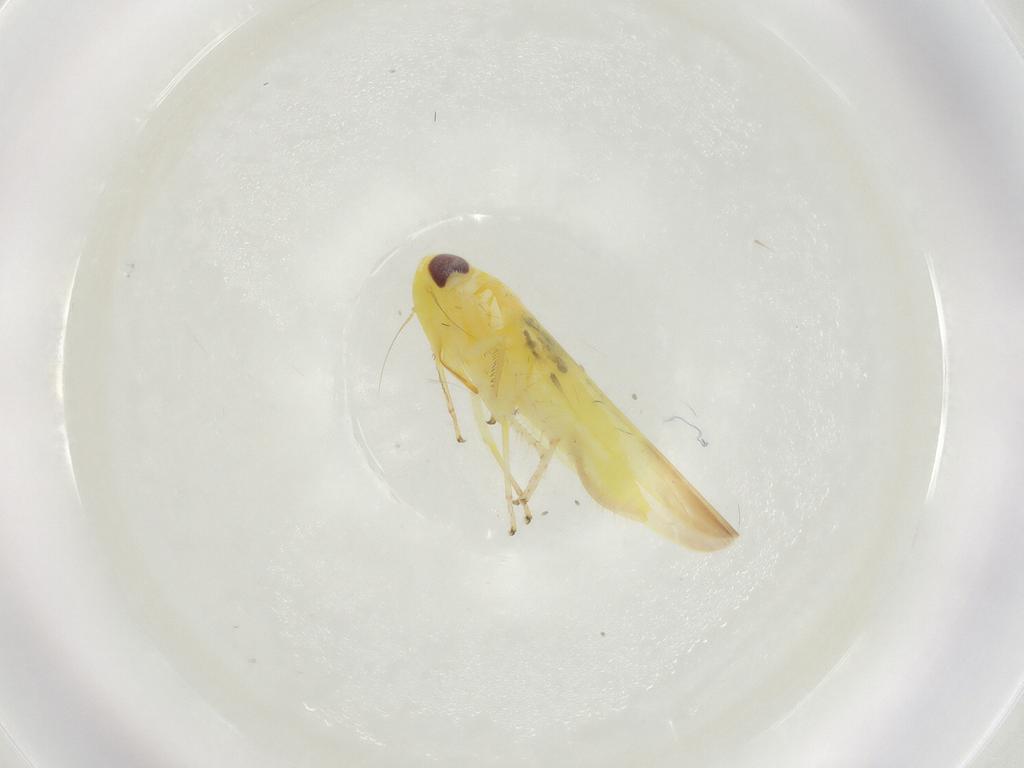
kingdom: Animalia
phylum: Arthropoda
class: Insecta
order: Hemiptera
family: Cicadellidae
